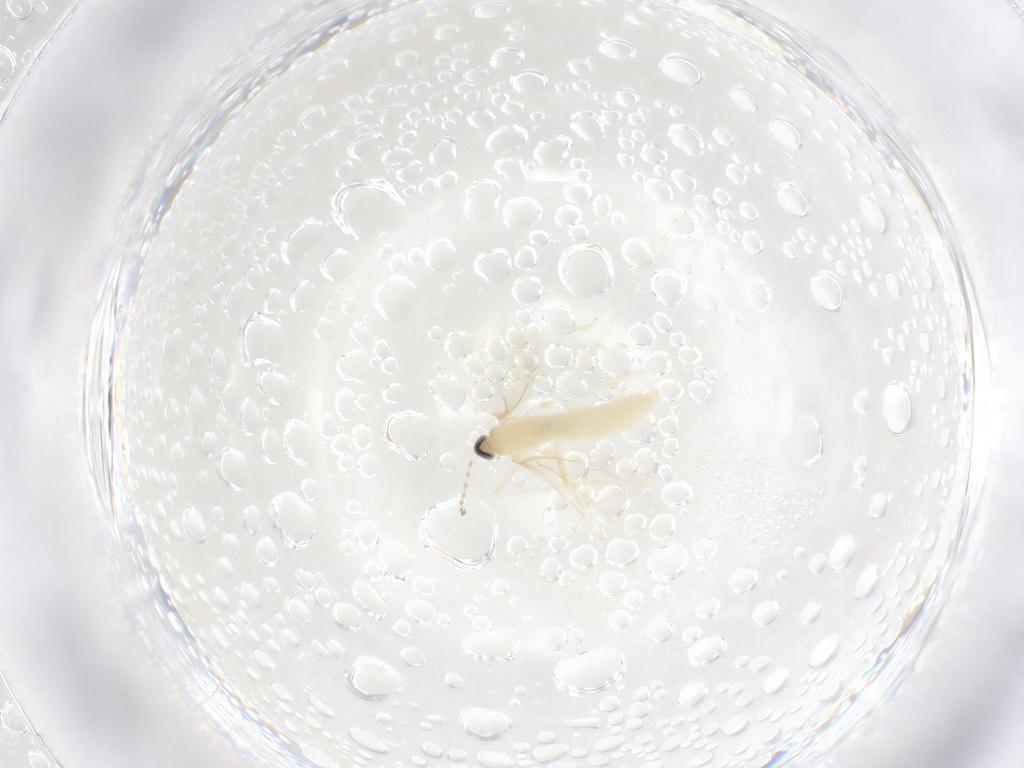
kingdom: Animalia
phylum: Arthropoda
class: Insecta
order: Diptera
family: Cecidomyiidae
